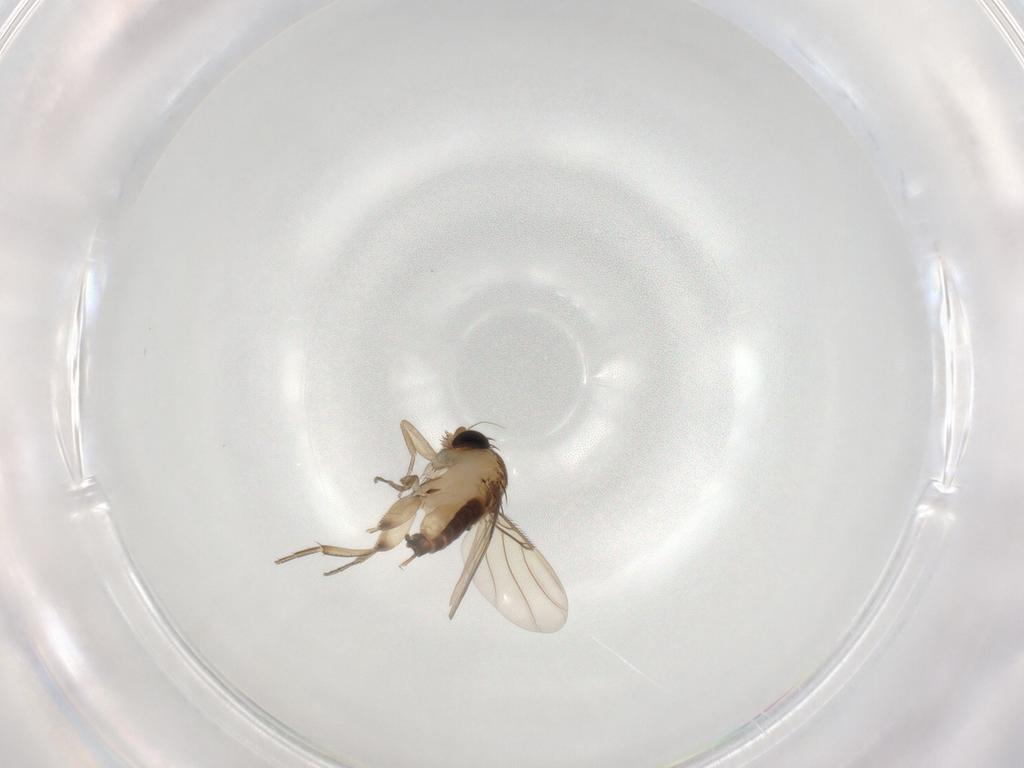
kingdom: Animalia
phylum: Arthropoda
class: Insecta
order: Diptera
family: Phoridae
